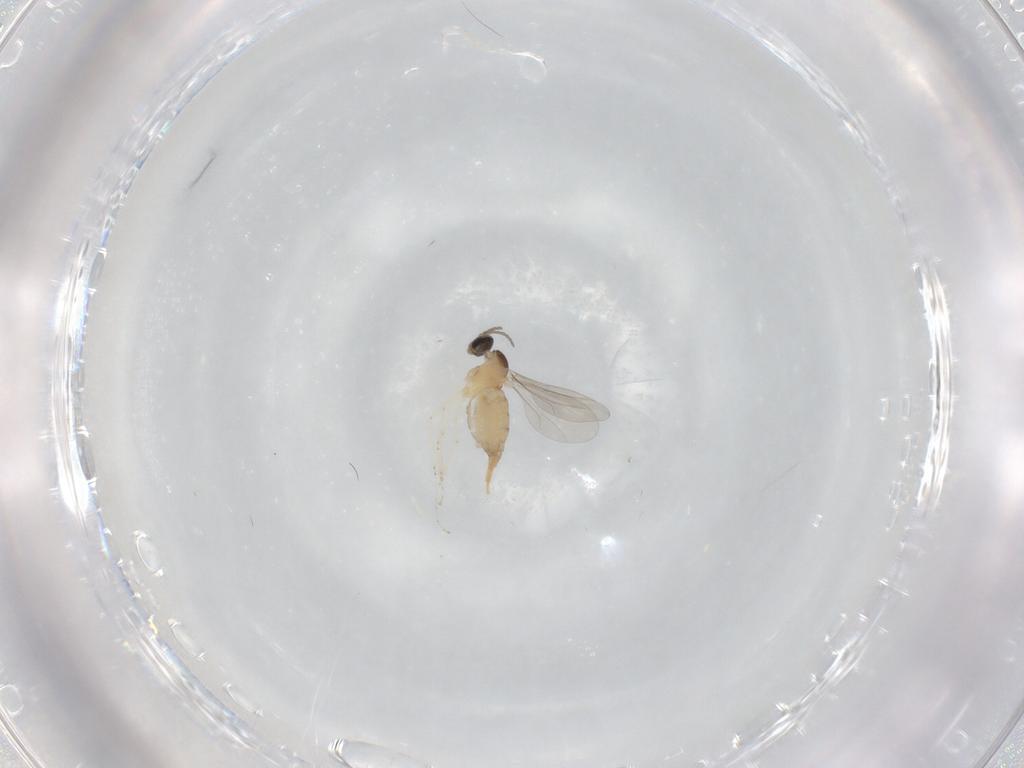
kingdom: Animalia
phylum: Arthropoda
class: Insecta
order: Diptera
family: Cecidomyiidae
